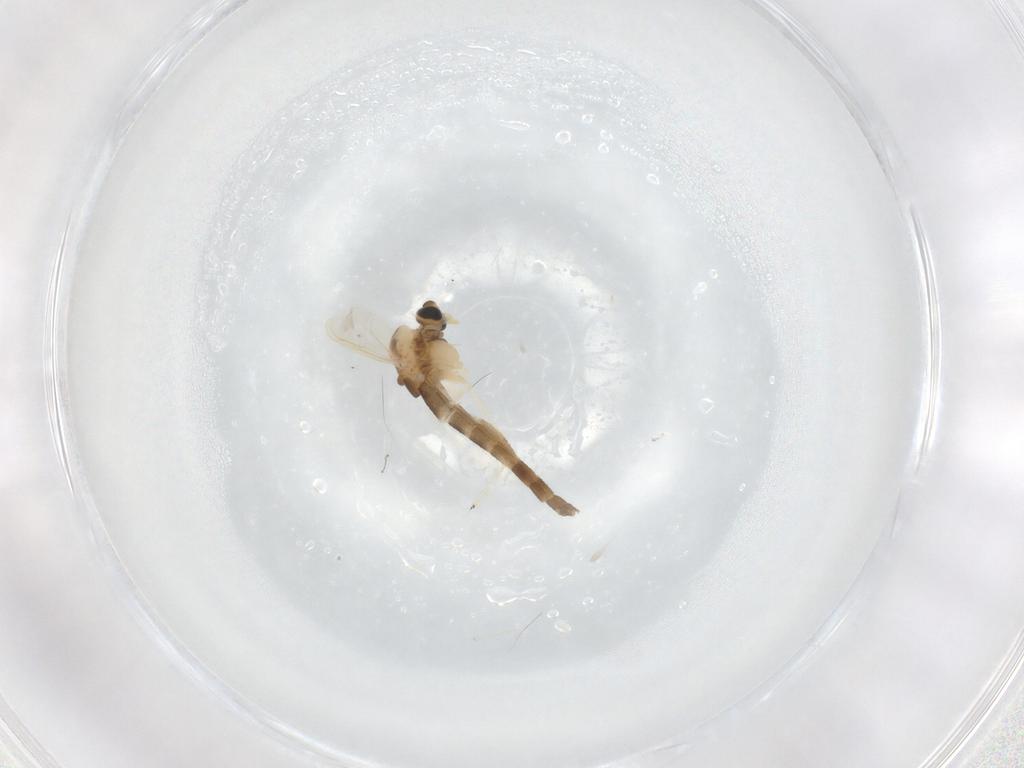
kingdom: Animalia
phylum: Arthropoda
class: Insecta
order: Diptera
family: Chironomidae
